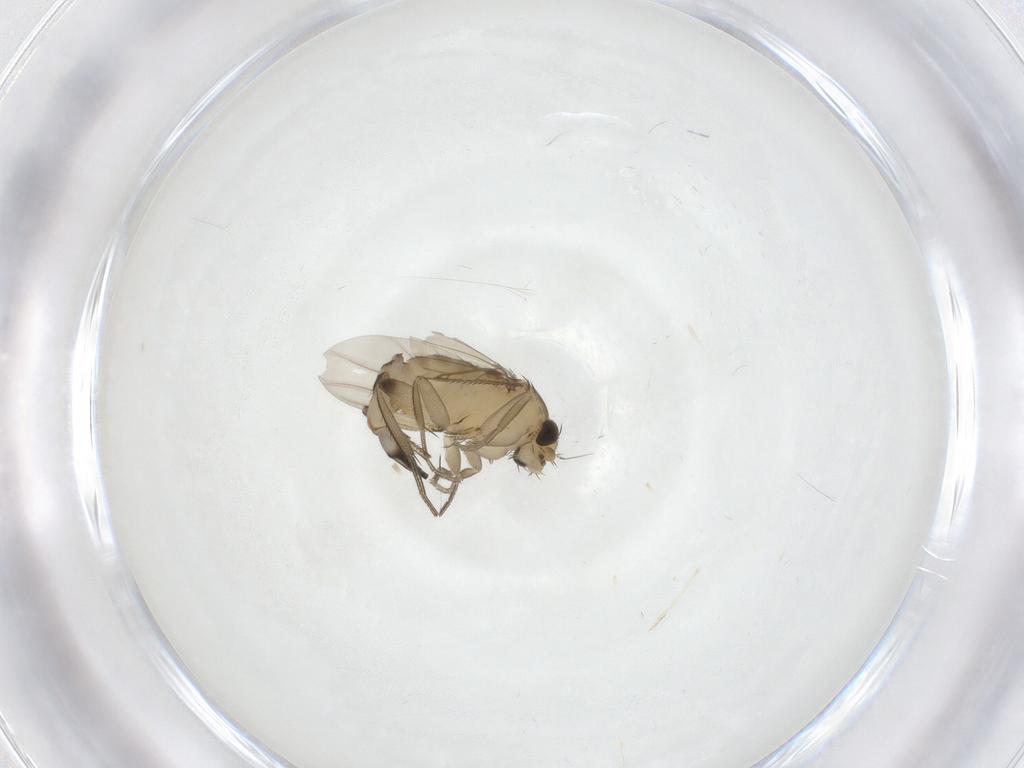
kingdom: Animalia
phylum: Arthropoda
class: Insecta
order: Diptera
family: Cecidomyiidae
